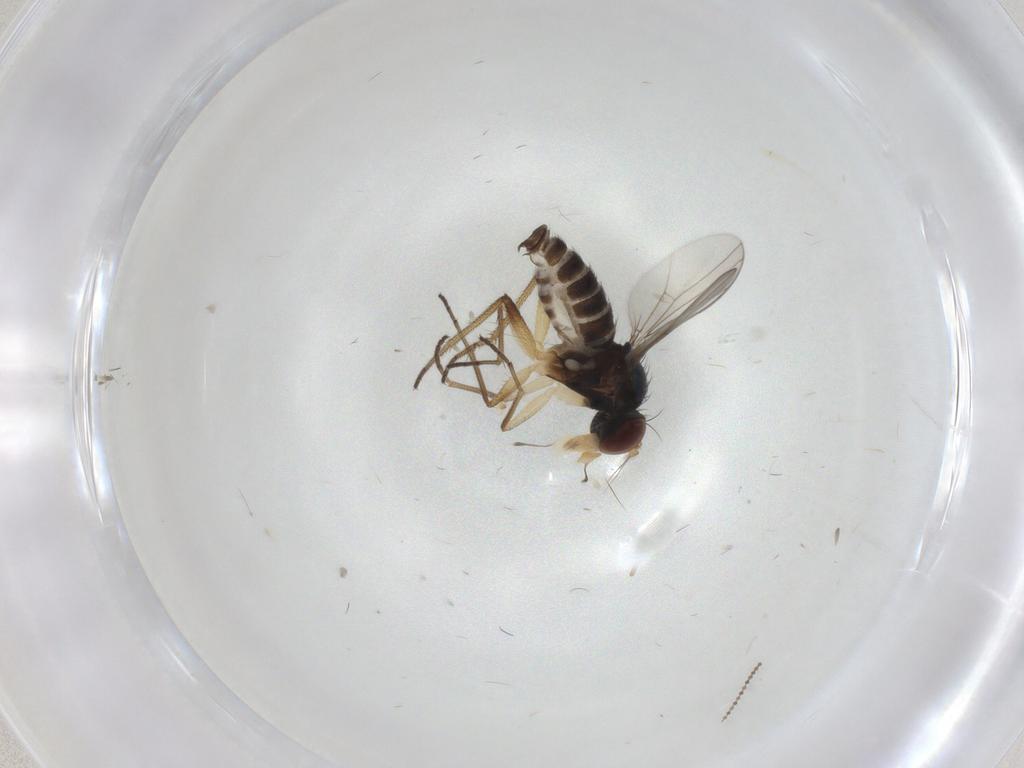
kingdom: Animalia
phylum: Arthropoda
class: Insecta
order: Diptera
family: Dolichopodidae
